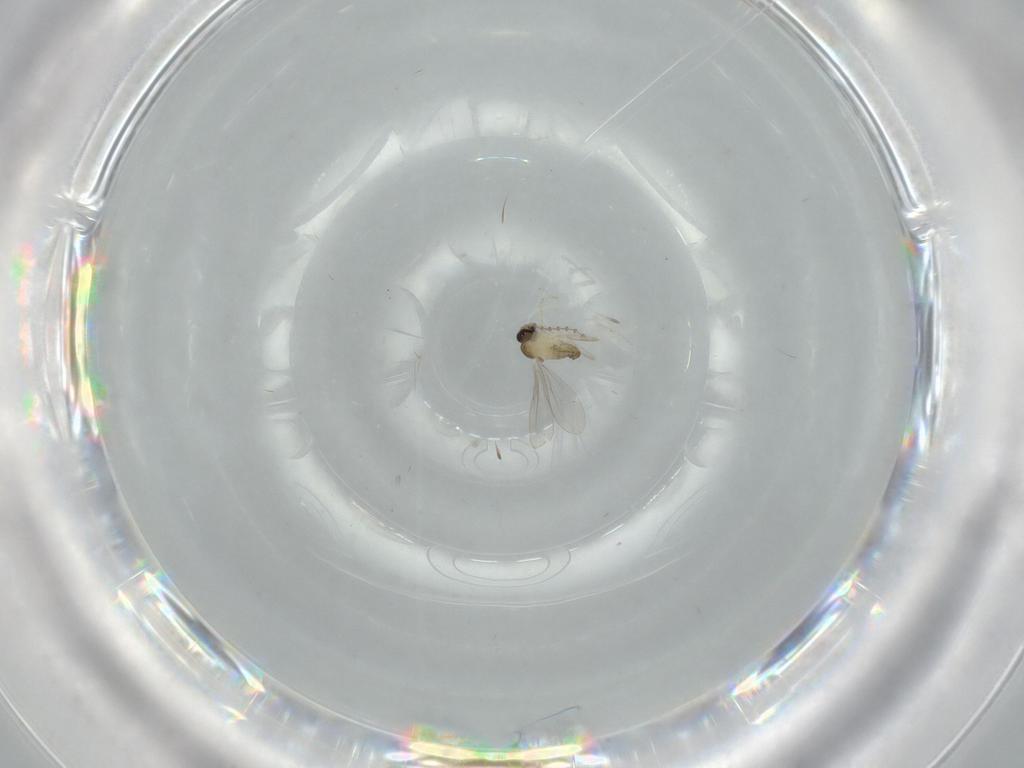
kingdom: Animalia
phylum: Arthropoda
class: Insecta
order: Diptera
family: Cecidomyiidae
